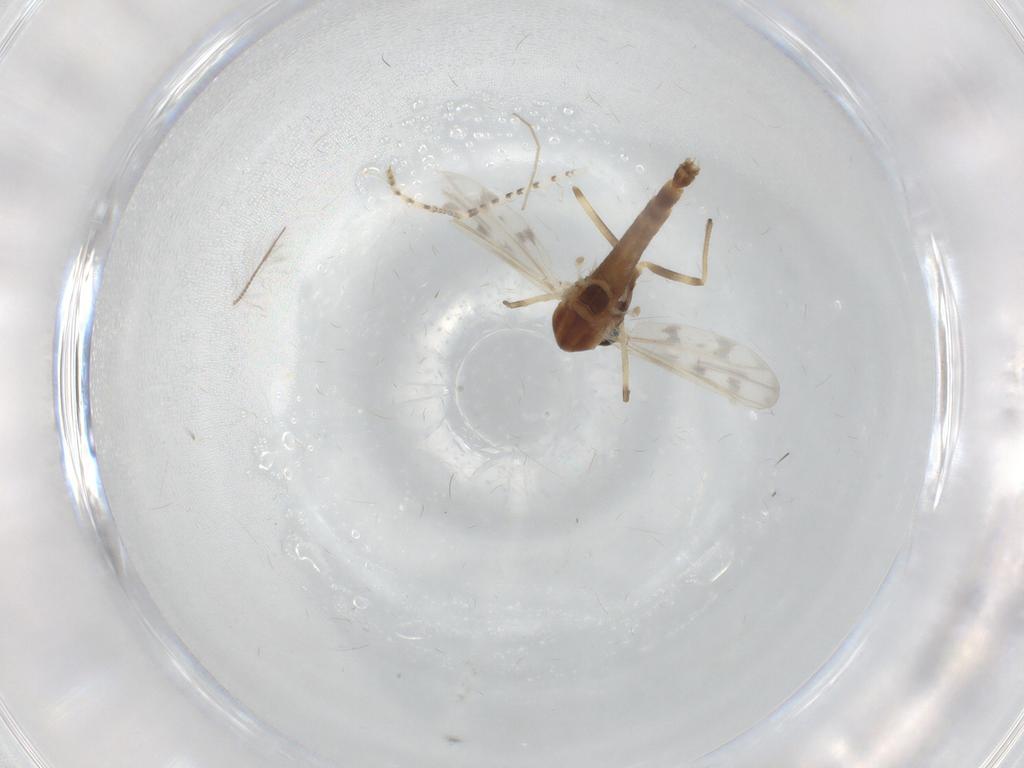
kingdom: Animalia
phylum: Arthropoda
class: Insecta
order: Diptera
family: Chironomidae
